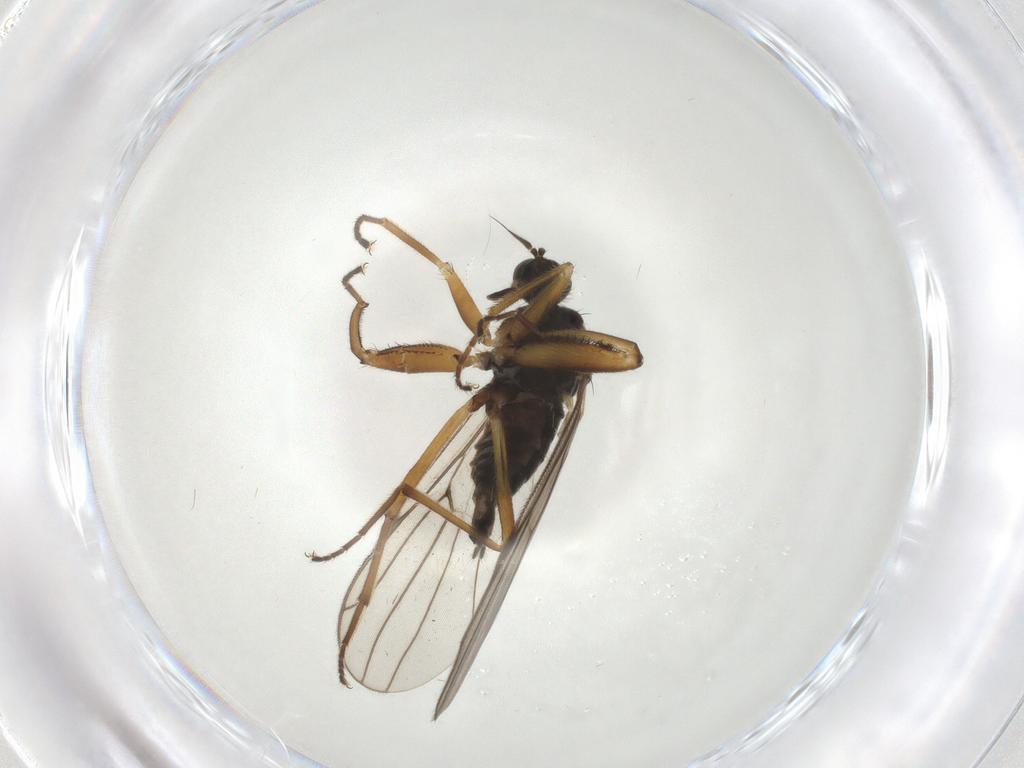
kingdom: Animalia
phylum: Arthropoda
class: Insecta
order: Diptera
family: Hybotidae
